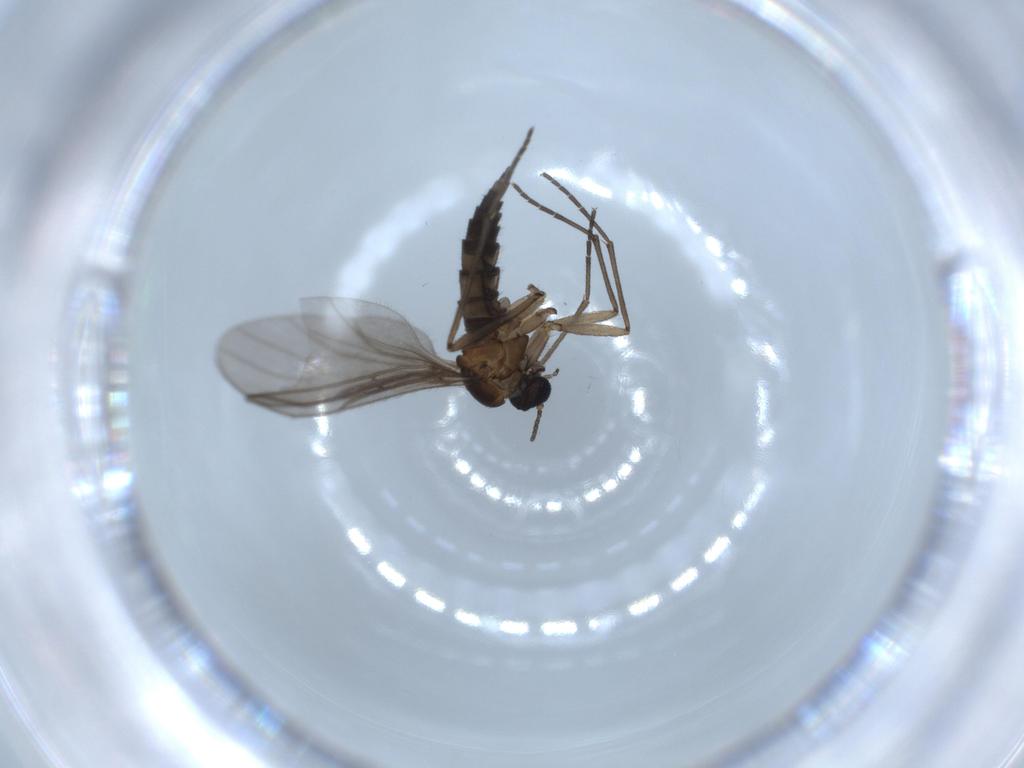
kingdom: Animalia
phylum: Arthropoda
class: Insecta
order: Diptera
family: Sciaridae
